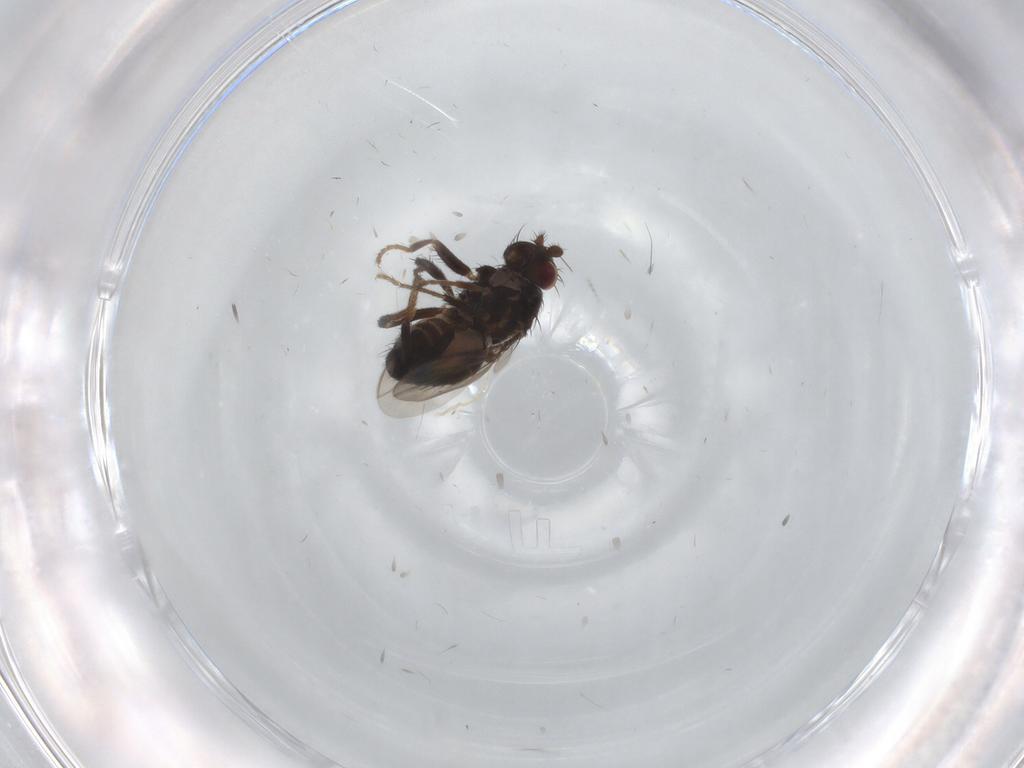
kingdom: Animalia
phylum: Arthropoda
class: Insecta
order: Diptera
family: Sphaeroceridae
